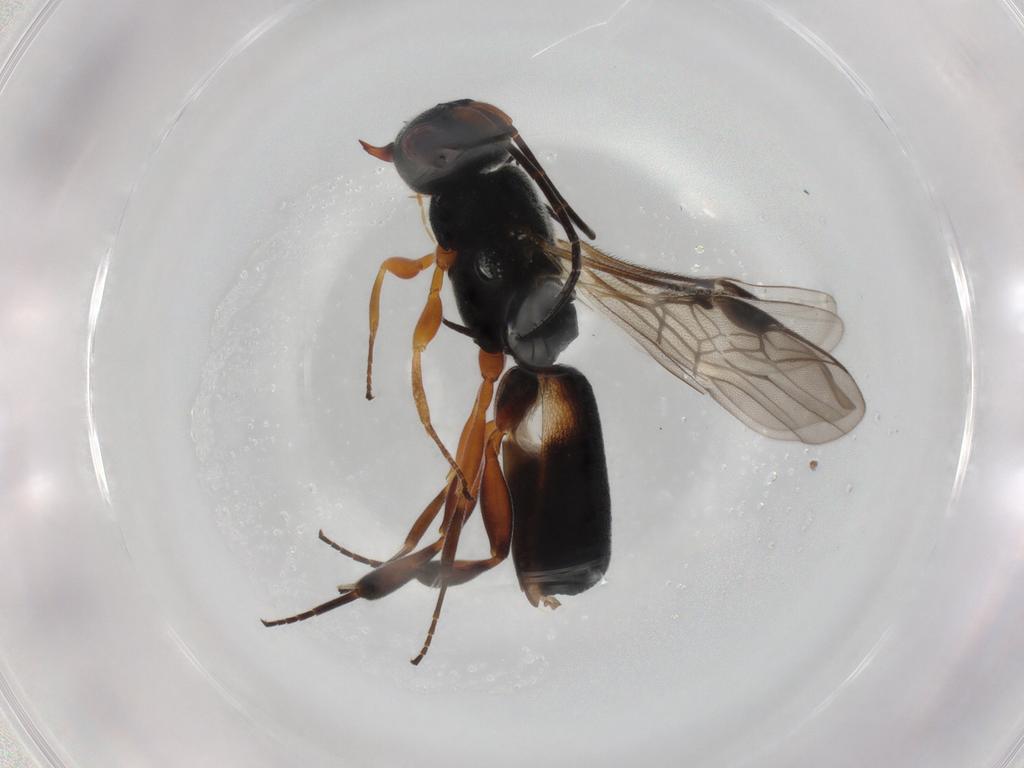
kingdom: Animalia
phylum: Arthropoda
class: Insecta
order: Hymenoptera
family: Braconidae
